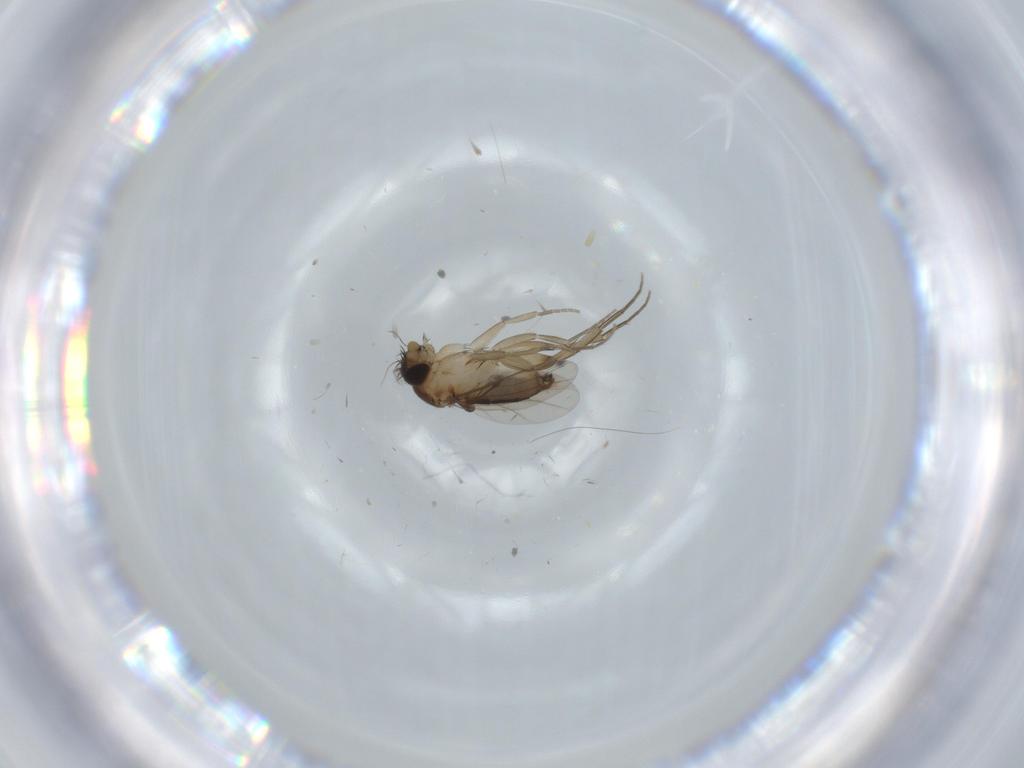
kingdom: Animalia
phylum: Arthropoda
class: Insecta
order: Diptera
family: Phoridae
